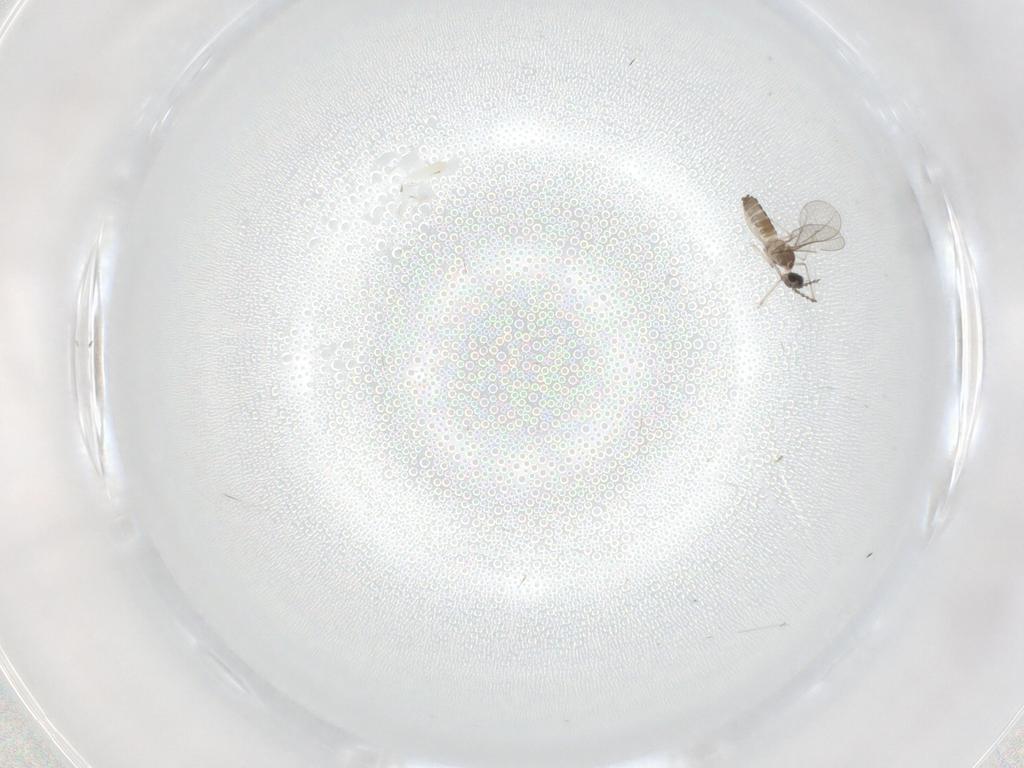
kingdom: Animalia
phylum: Arthropoda
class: Insecta
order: Diptera
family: Cecidomyiidae
